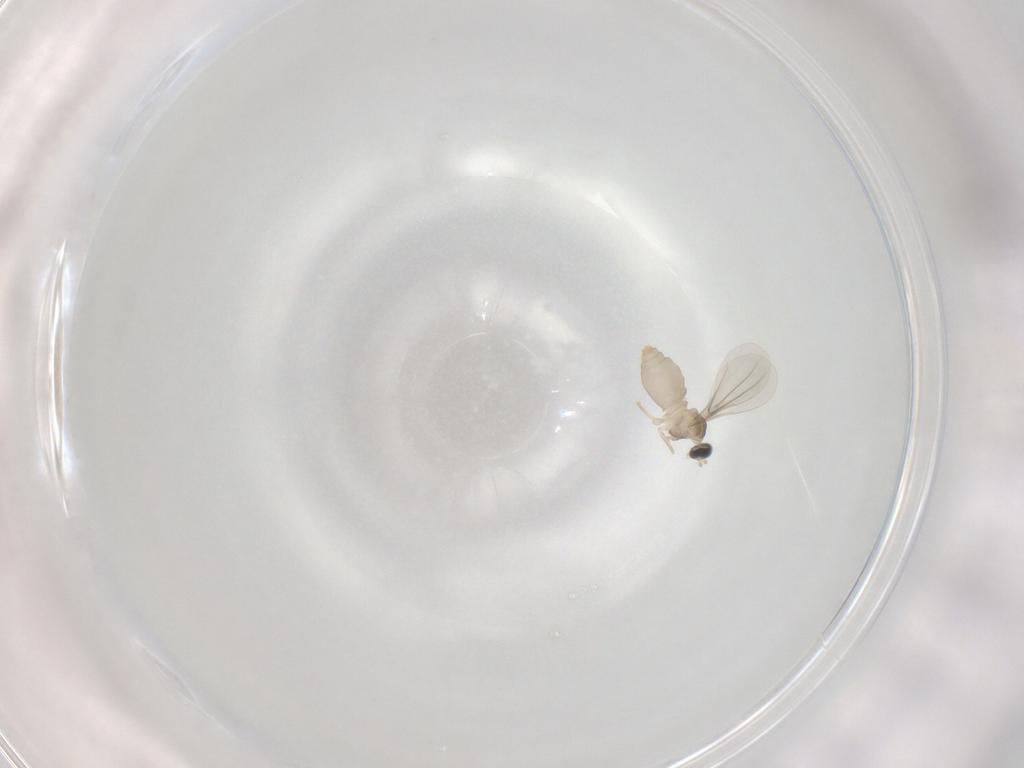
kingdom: Animalia
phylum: Arthropoda
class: Insecta
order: Diptera
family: Cecidomyiidae
